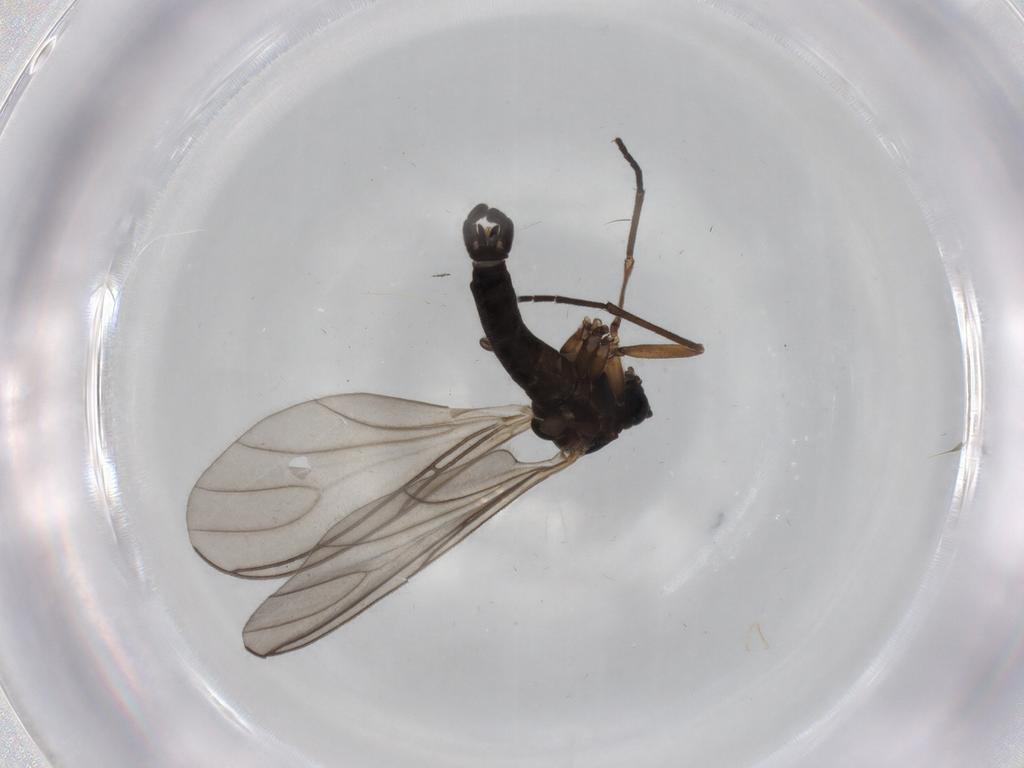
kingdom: Animalia
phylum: Arthropoda
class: Insecta
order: Diptera
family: Sciaridae
